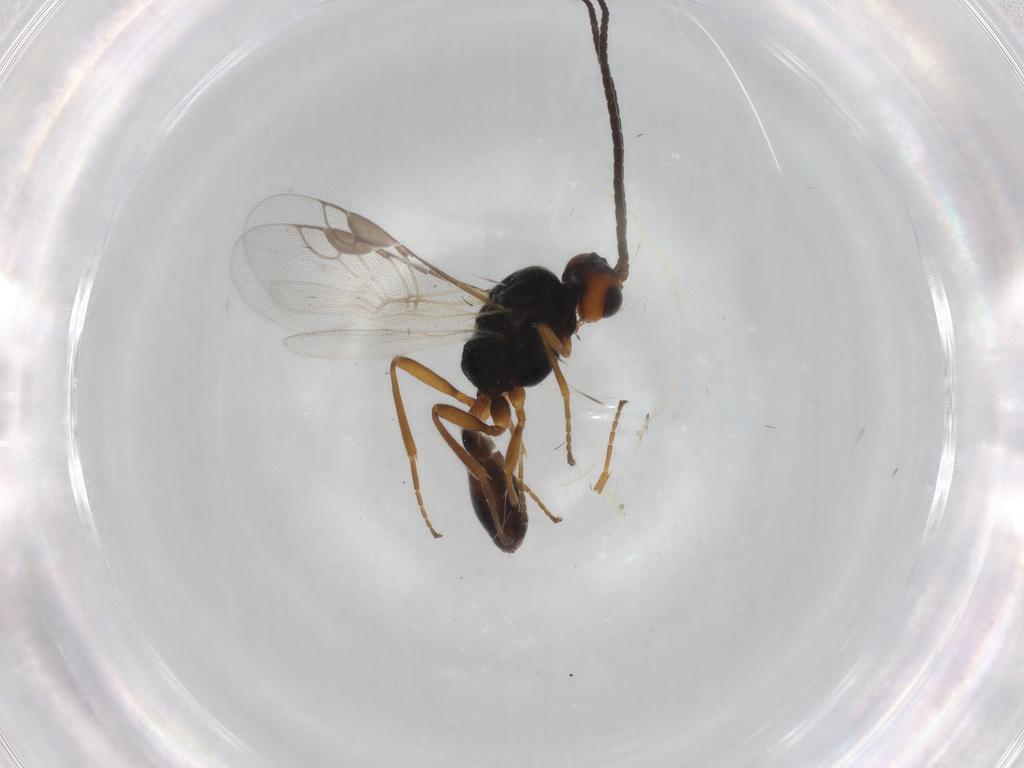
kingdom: Animalia
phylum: Arthropoda
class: Insecta
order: Hymenoptera
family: Braconidae
